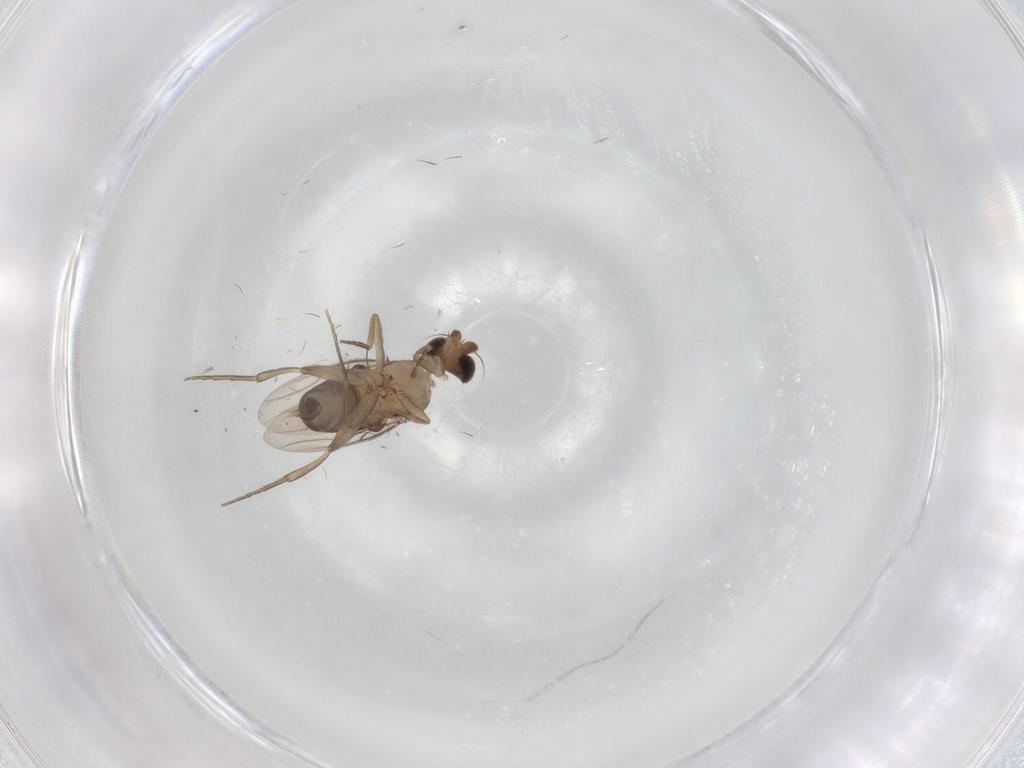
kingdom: Animalia
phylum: Arthropoda
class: Insecta
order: Diptera
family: Phoridae
